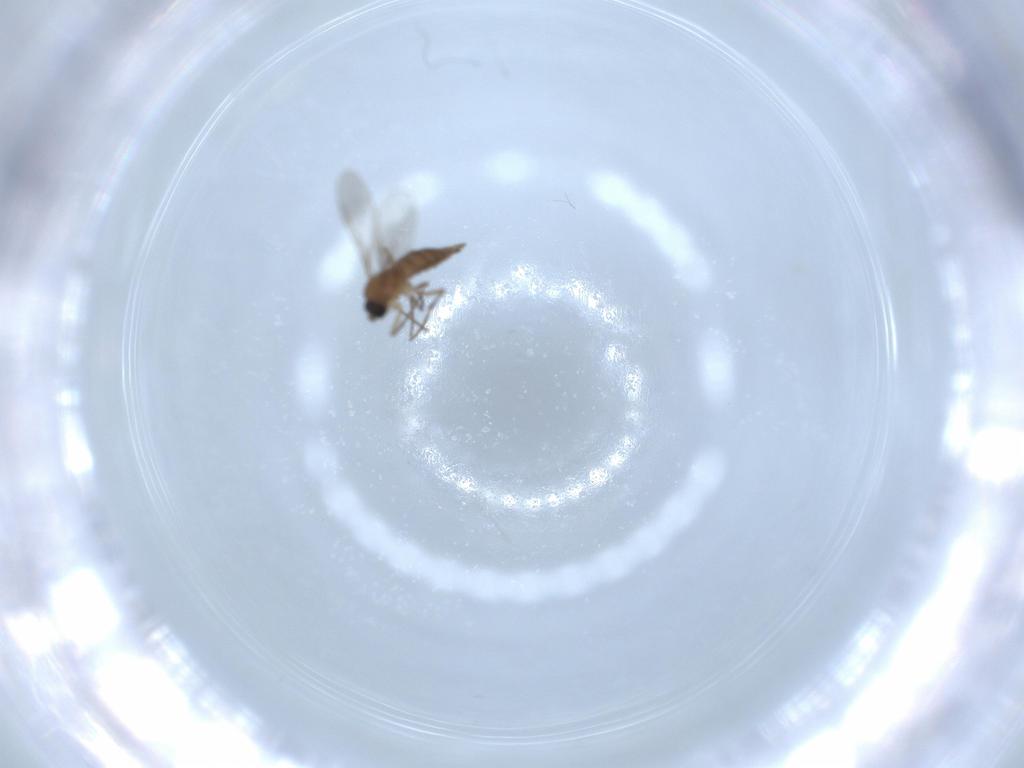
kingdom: Animalia
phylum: Arthropoda
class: Insecta
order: Diptera
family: Sciaridae
